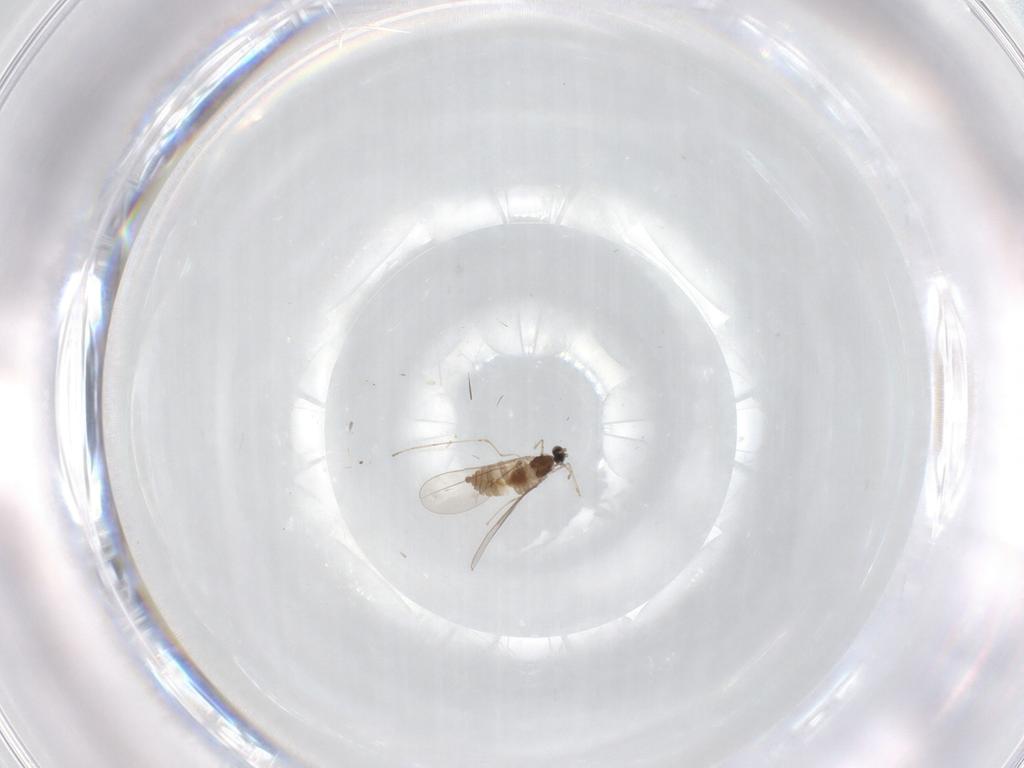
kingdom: Animalia
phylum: Arthropoda
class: Insecta
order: Diptera
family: Cecidomyiidae
